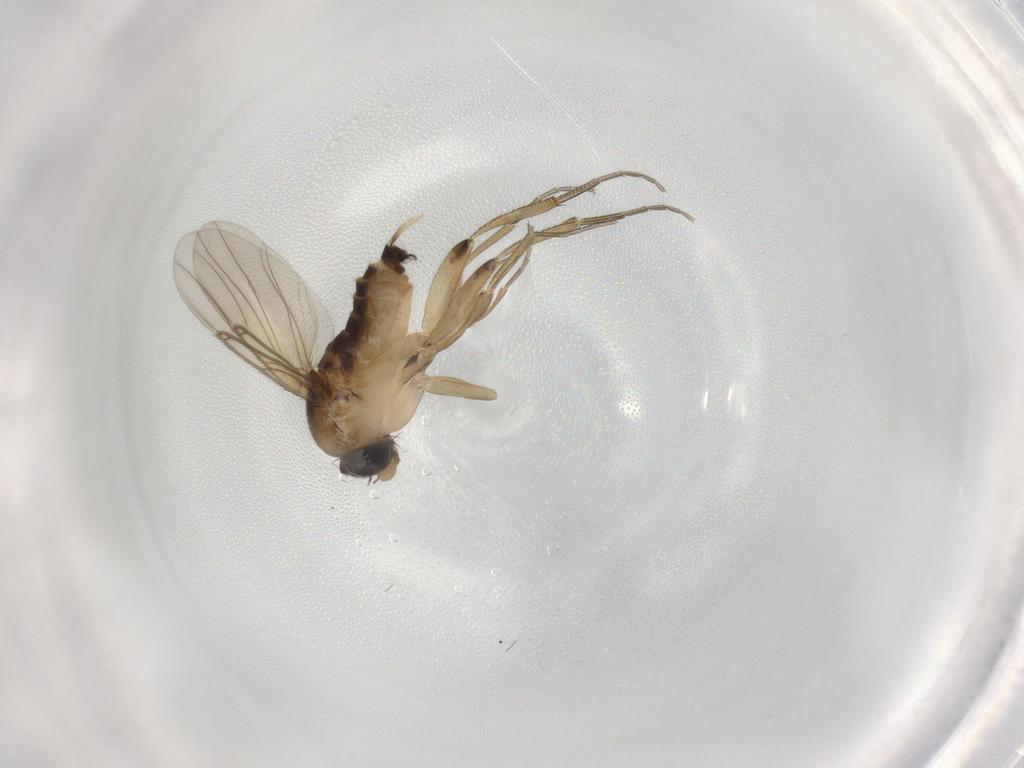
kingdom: Animalia
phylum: Arthropoda
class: Insecta
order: Diptera
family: Phoridae
